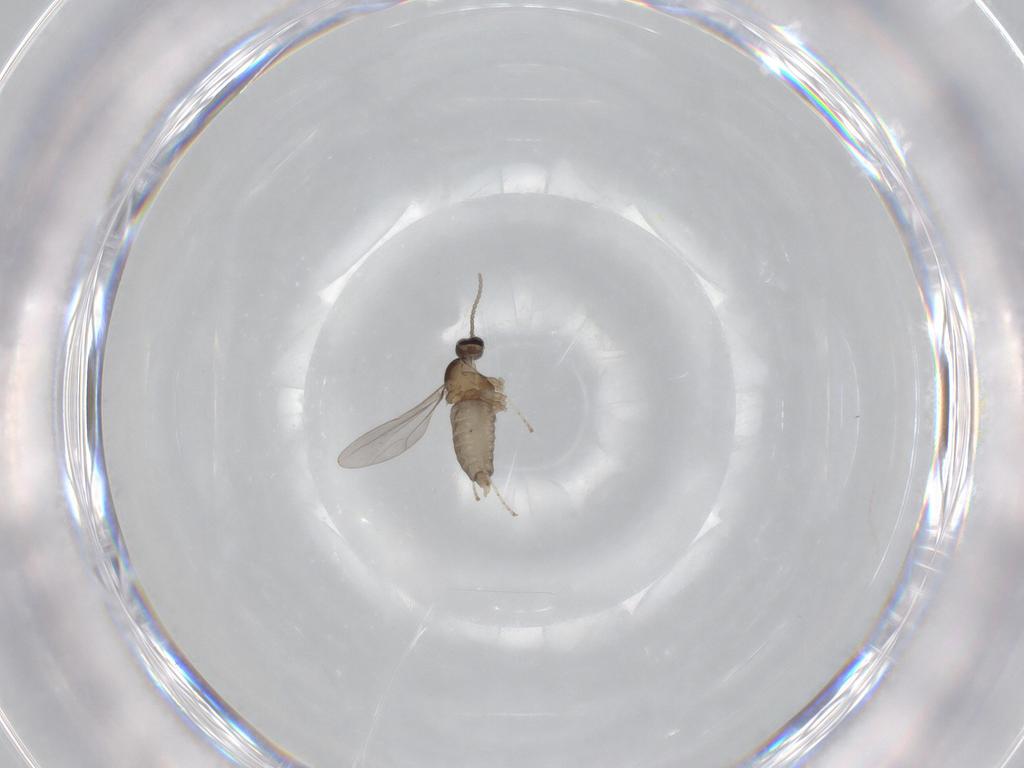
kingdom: Animalia
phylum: Arthropoda
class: Insecta
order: Diptera
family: Cecidomyiidae
